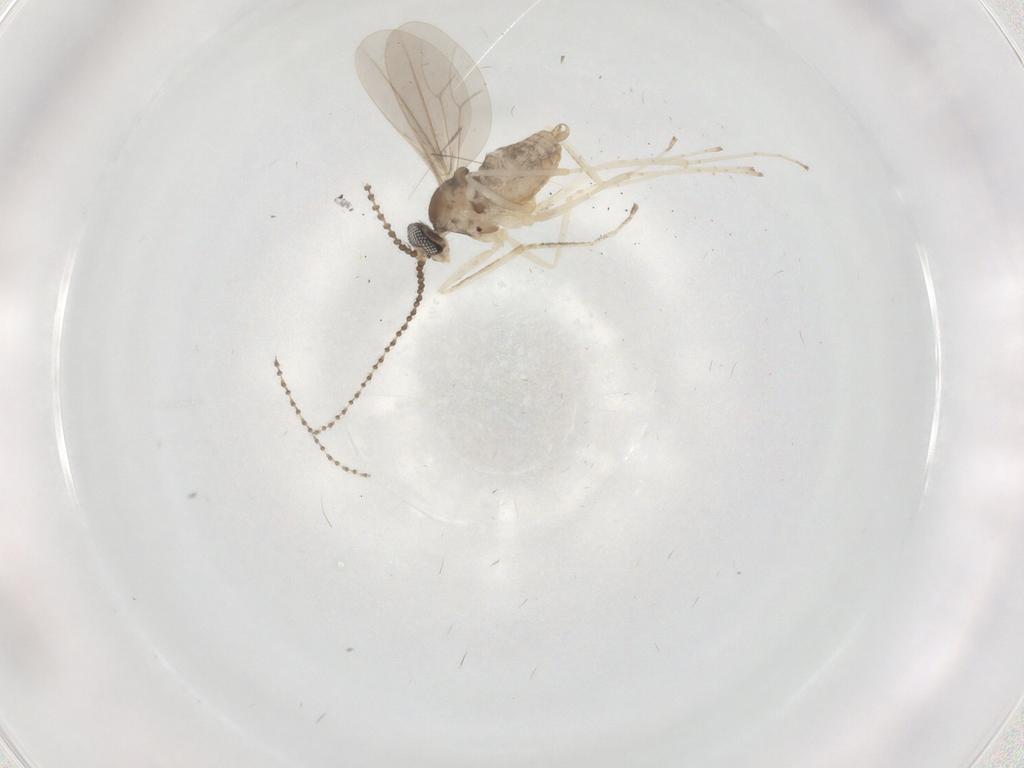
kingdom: Animalia
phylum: Arthropoda
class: Insecta
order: Diptera
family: Cecidomyiidae
